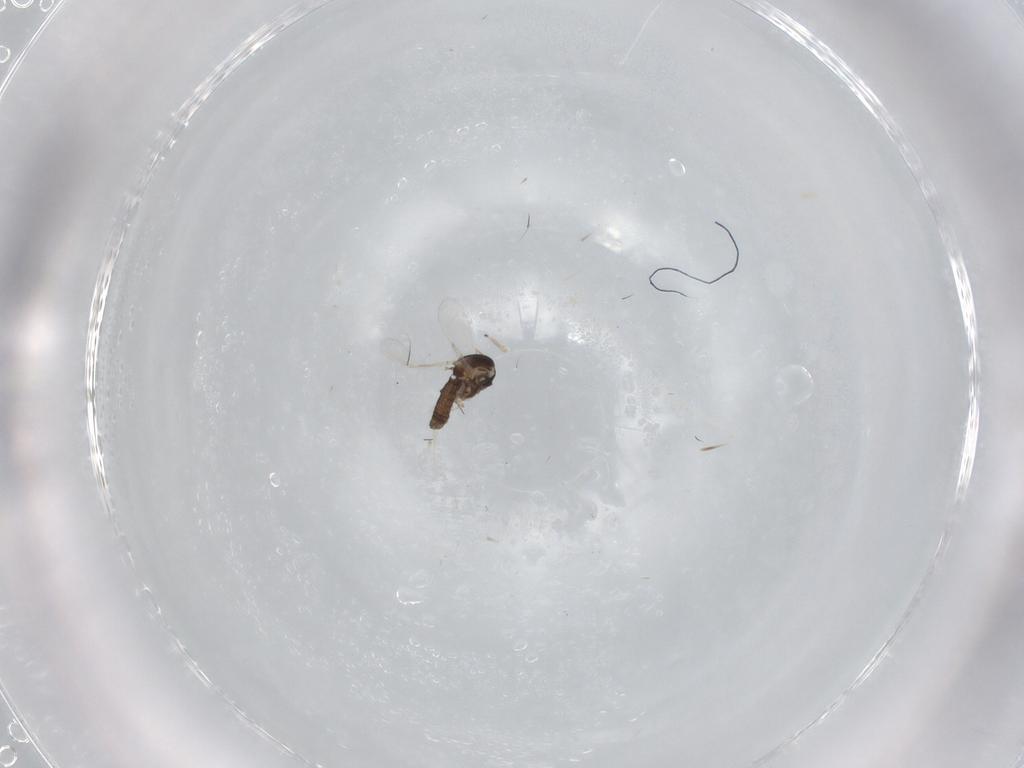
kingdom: Animalia
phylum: Arthropoda
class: Insecta
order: Diptera
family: Ceratopogonidae
